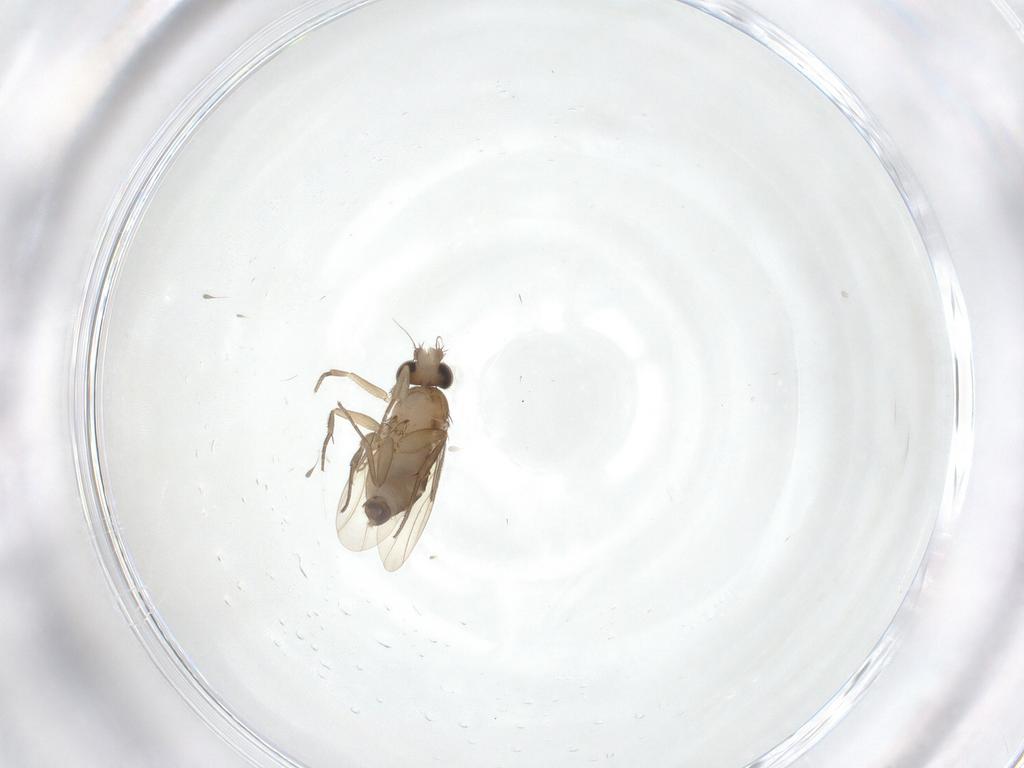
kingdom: Animalia
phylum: Arthropoda
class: Insecta
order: Diptera
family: Phoridae
